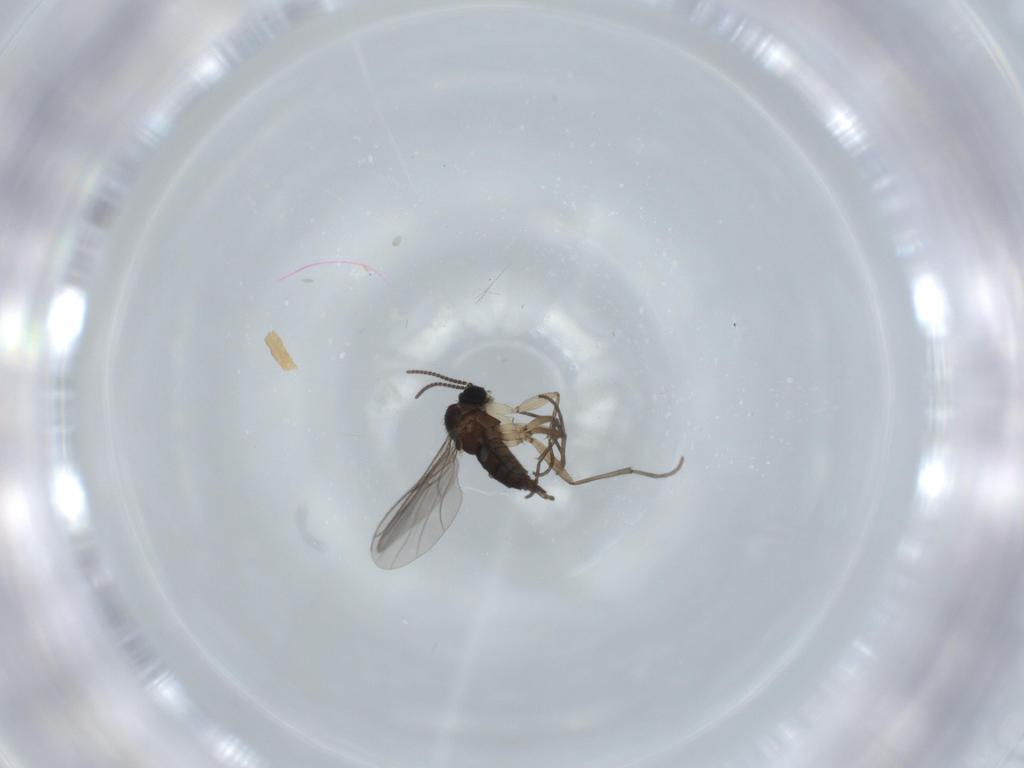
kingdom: Animalia
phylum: Arthropoda
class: Insecta
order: Diptera
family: Sciaridae
